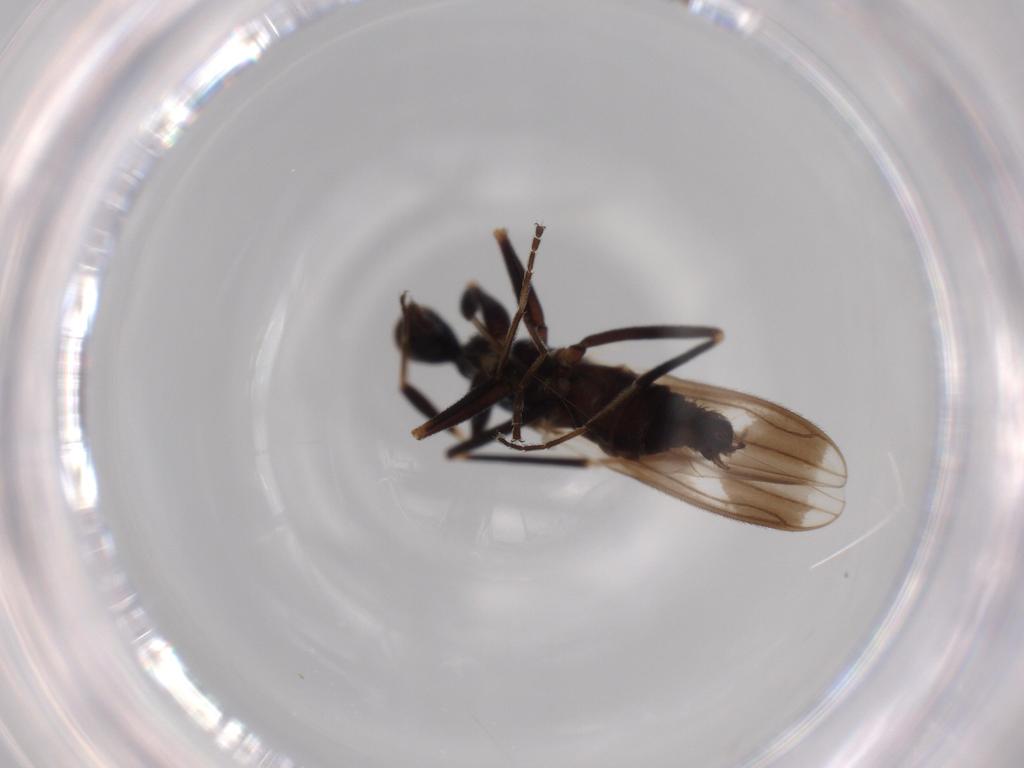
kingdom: Animalia
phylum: Arthropoda
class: Insecta
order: Diptera
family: Hybotidae
